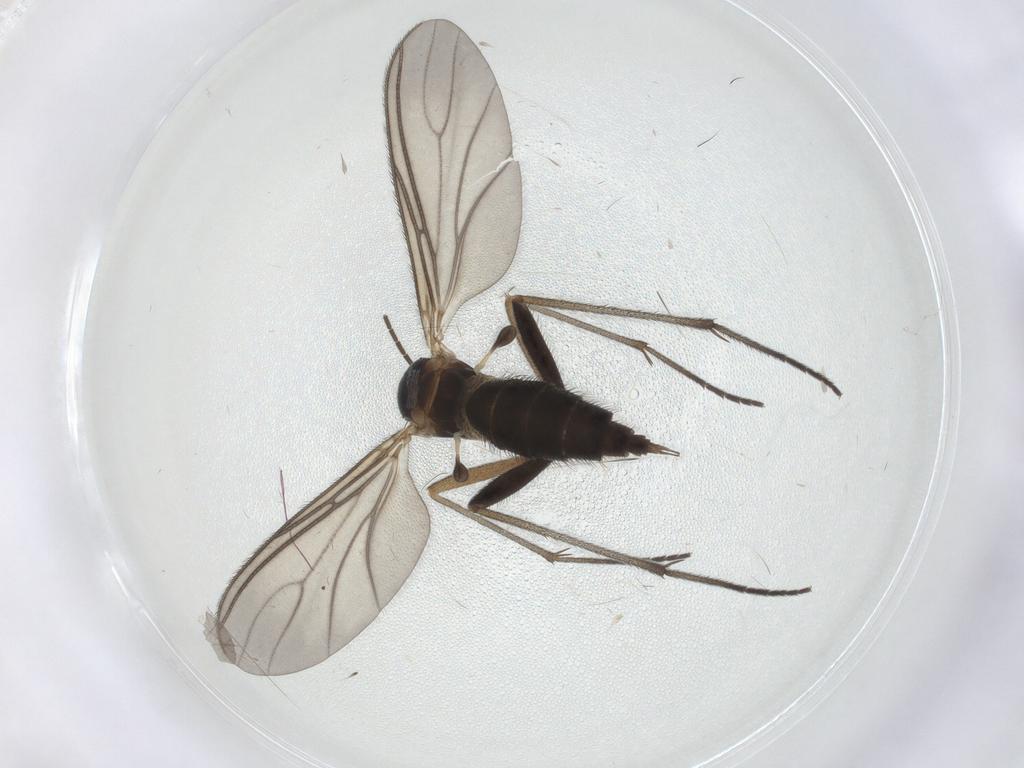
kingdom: Animalia
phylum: Arthropoda
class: Insecta
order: Diptera
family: Sciaridae
